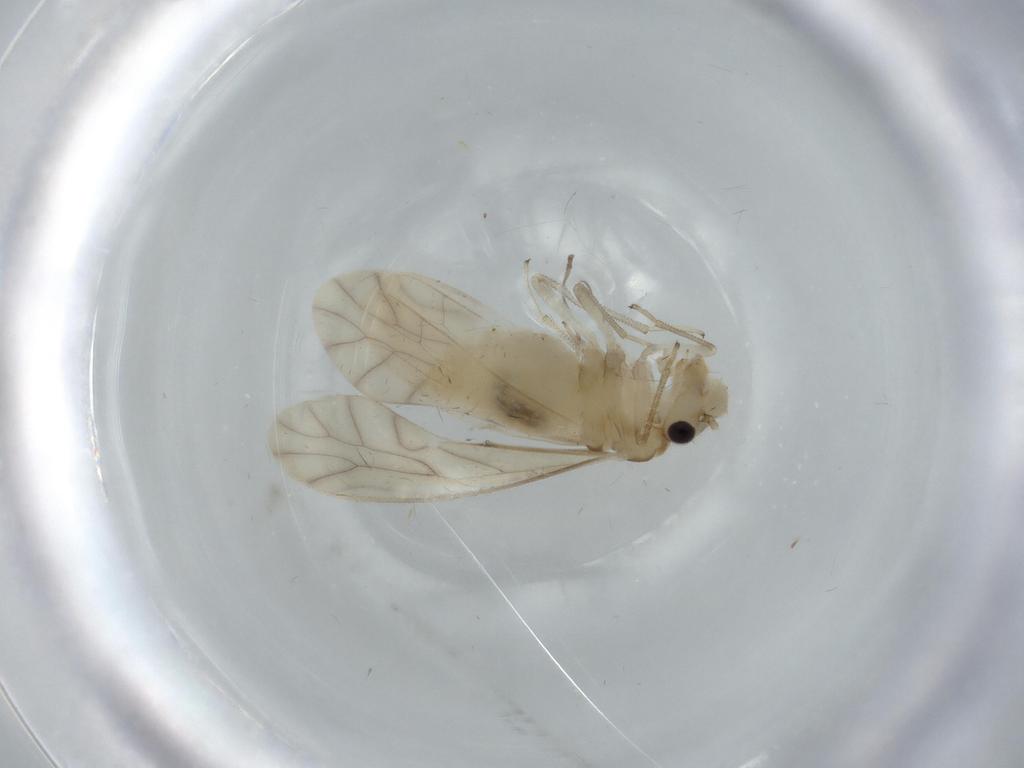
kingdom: Animalia
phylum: Arthropoda
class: Insecta
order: Psocodea
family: Caeciliusidae
